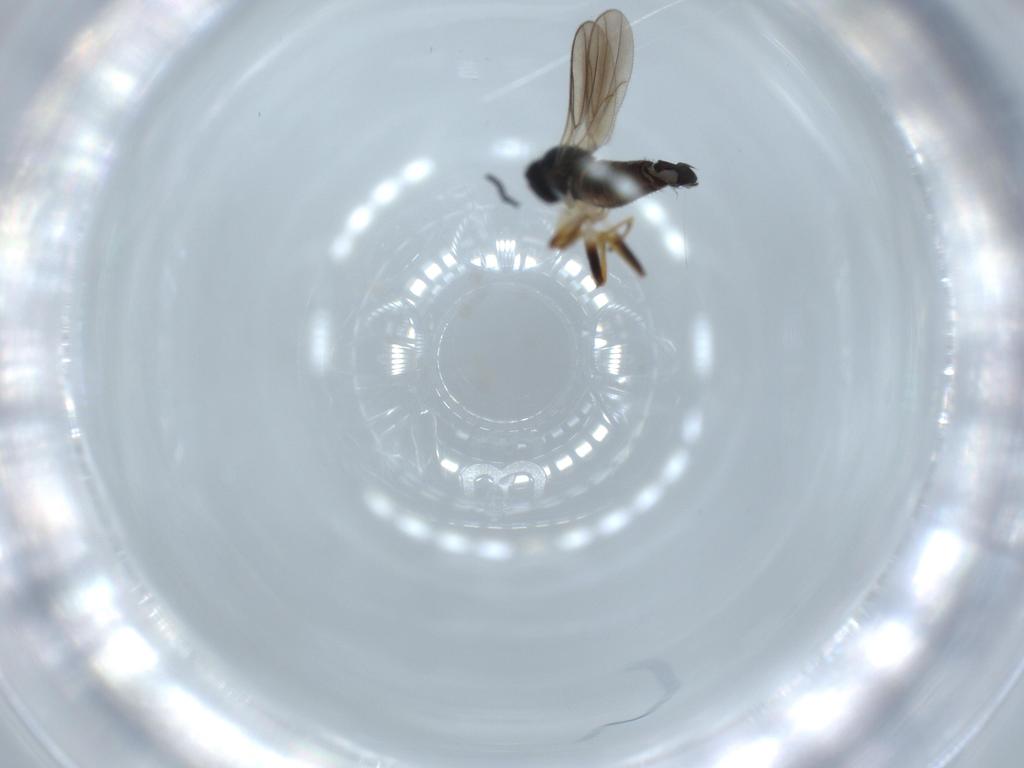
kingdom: Animalia
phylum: Arthropoda
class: Insecta
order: Diptera
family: Hybotidae
